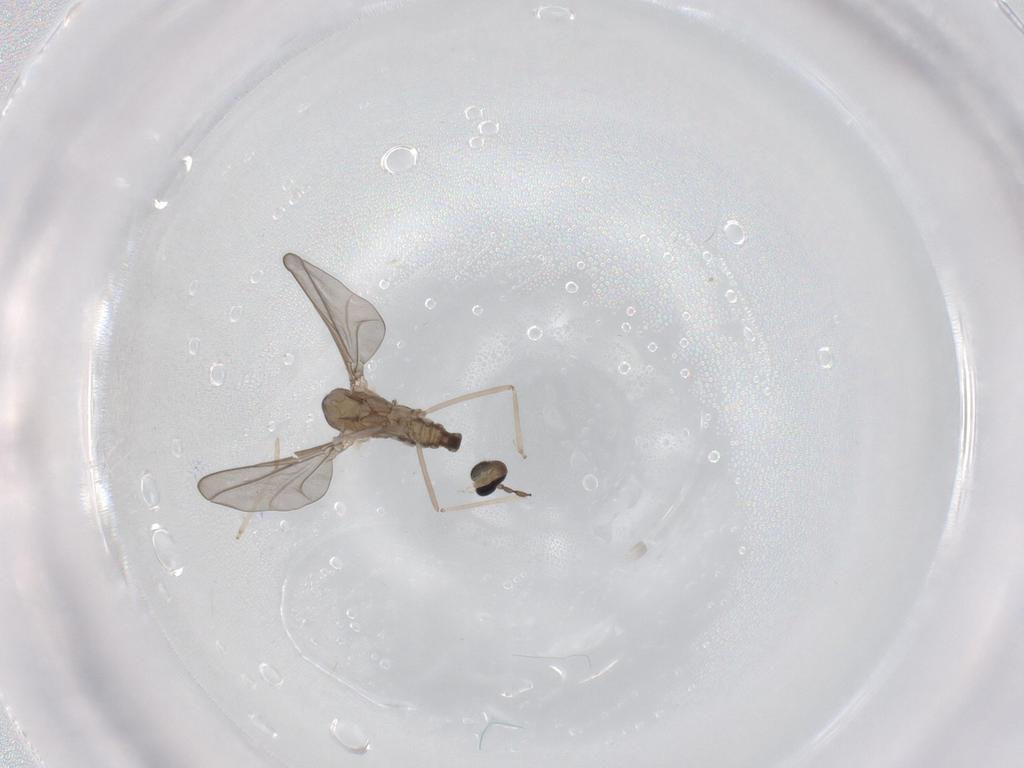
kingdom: Animalia
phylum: Arthropoda
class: Insecta
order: Diptera
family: Cecidomyiidae
